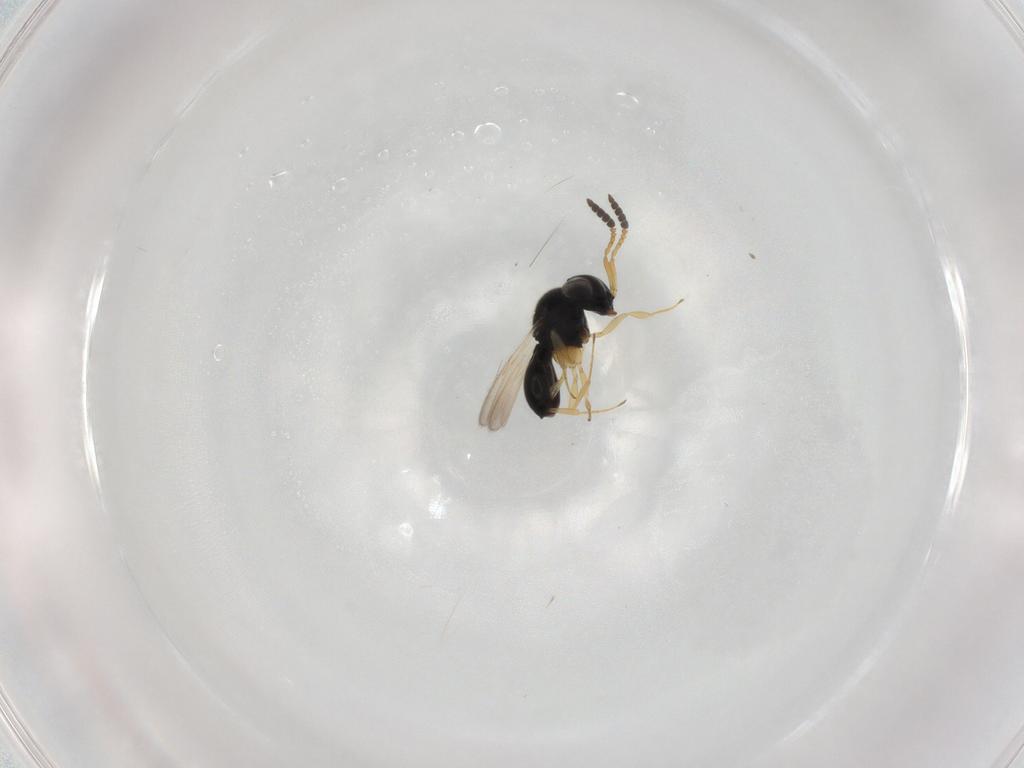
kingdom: Animalia
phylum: Arthropoda
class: Insecta
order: Hymenoptera
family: Scelionidae
